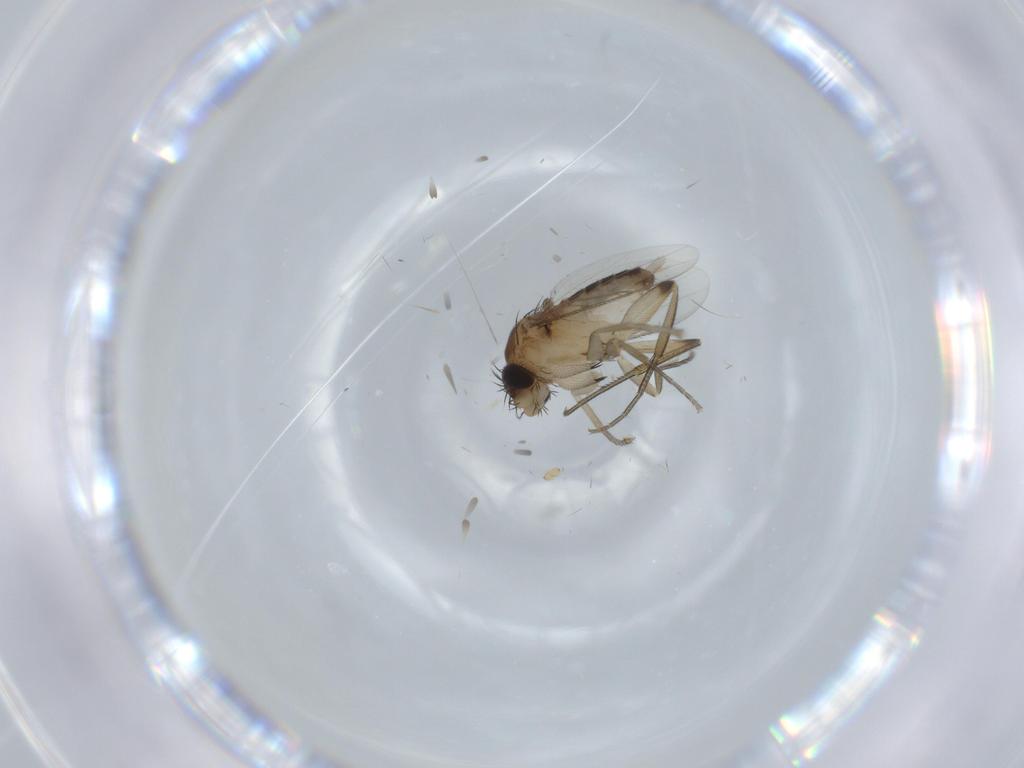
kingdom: Animalia
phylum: Arthropoda
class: Insecta
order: Diptera
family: Phoridae
